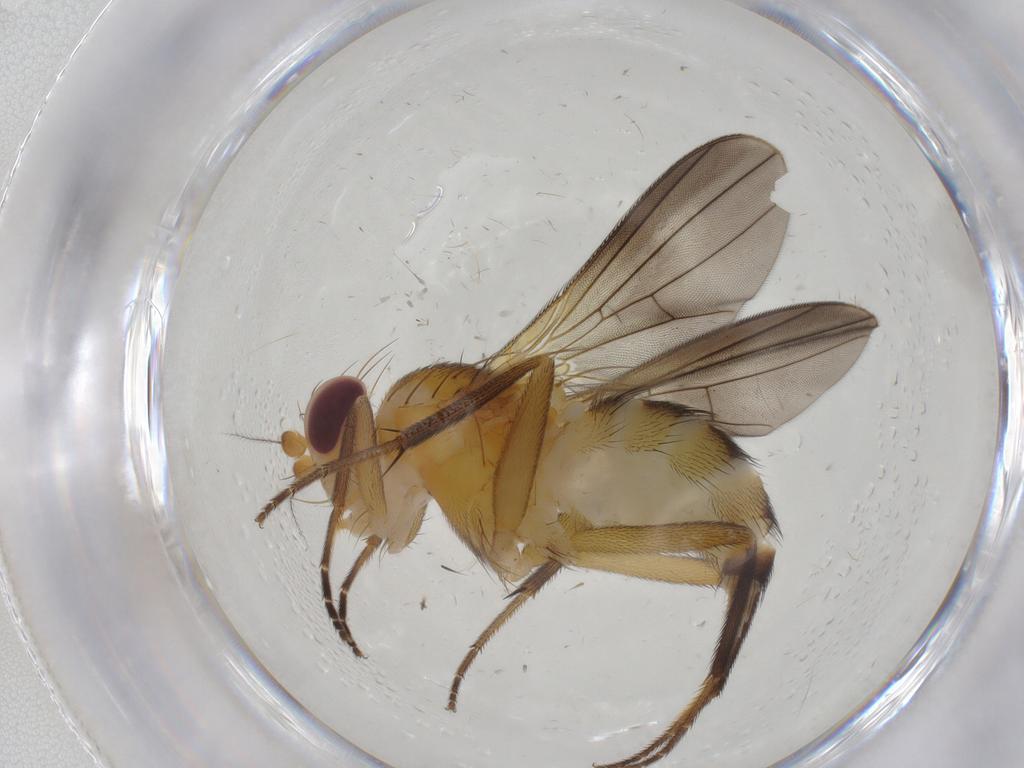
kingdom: Animalia
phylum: Arthropoda
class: Insecta
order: Diptera
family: Clusiidae
